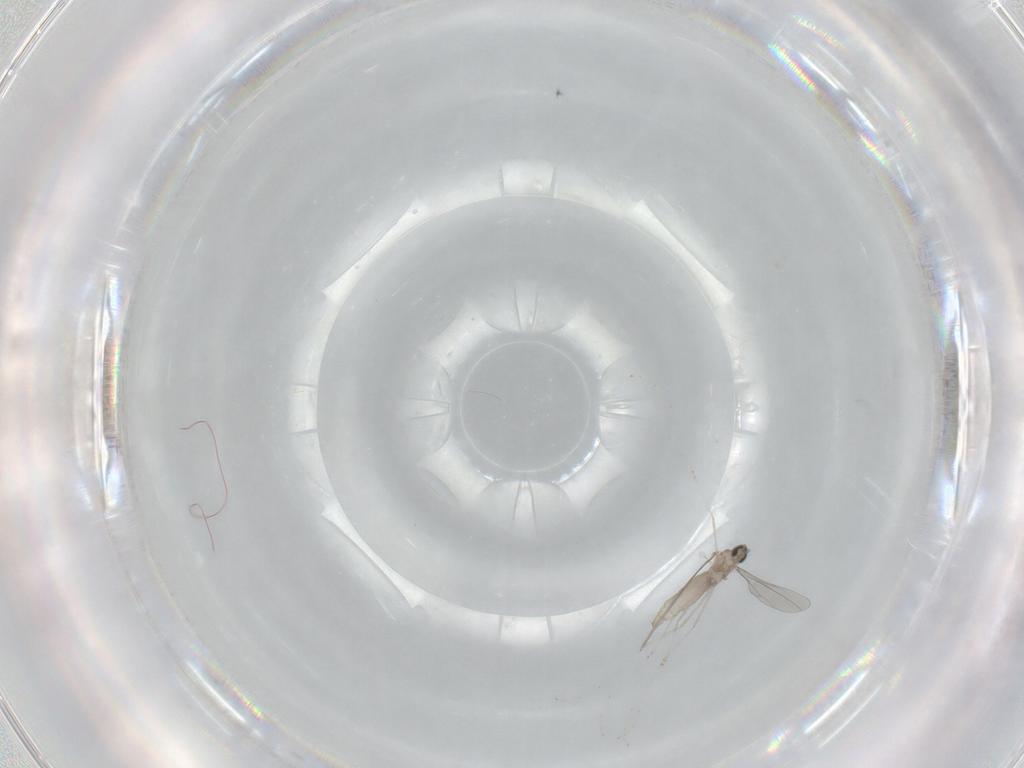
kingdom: Animalia
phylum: Arthropoda
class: Insecta
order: Diptera
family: Cecidomyiidae
